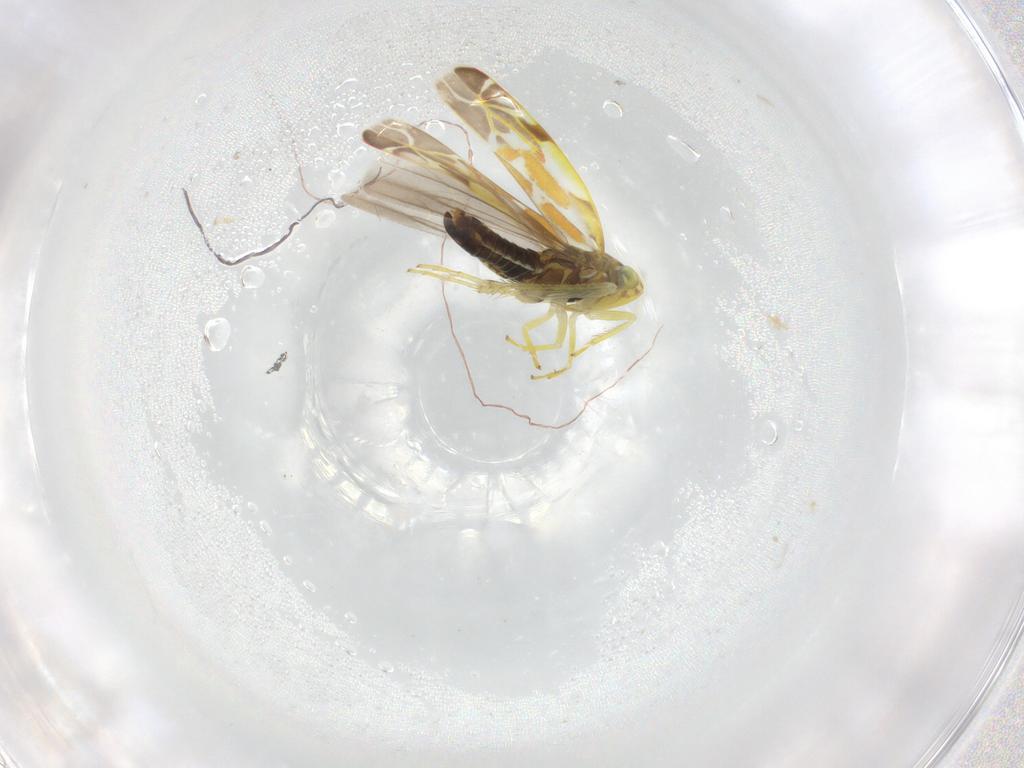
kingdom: Animalia
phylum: Arthropoda
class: Insecta
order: Hemiptera
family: Cicadellidae
